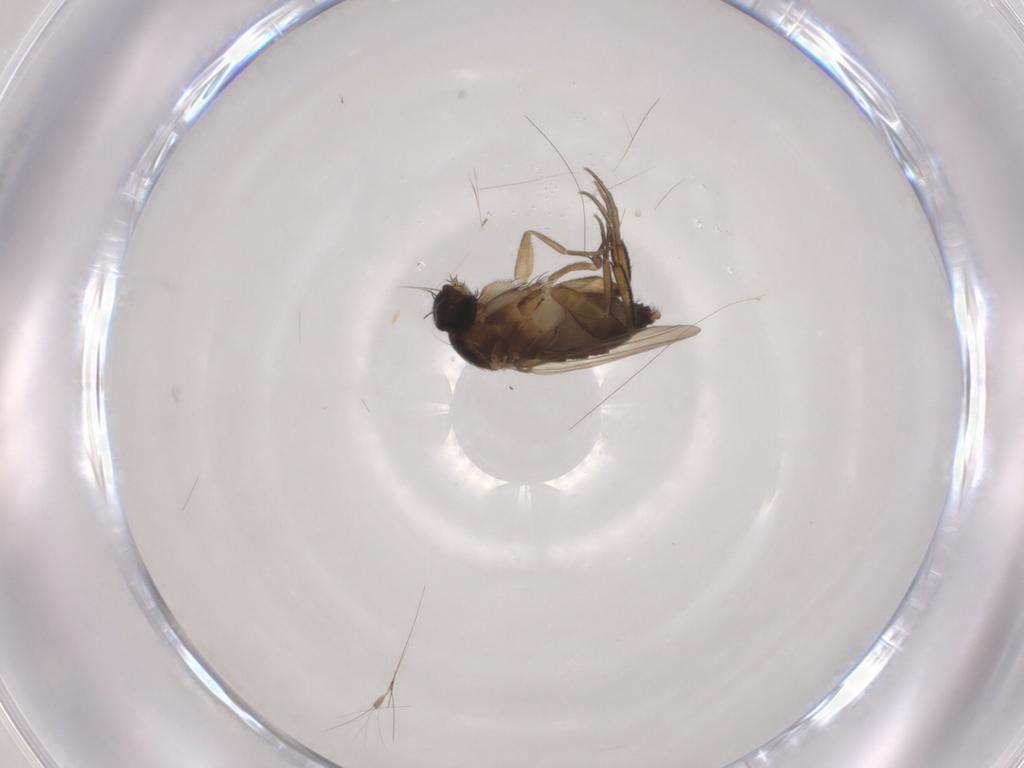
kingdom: Animalia
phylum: Arthropoda
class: Insecta
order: Diptera
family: Phoridae
